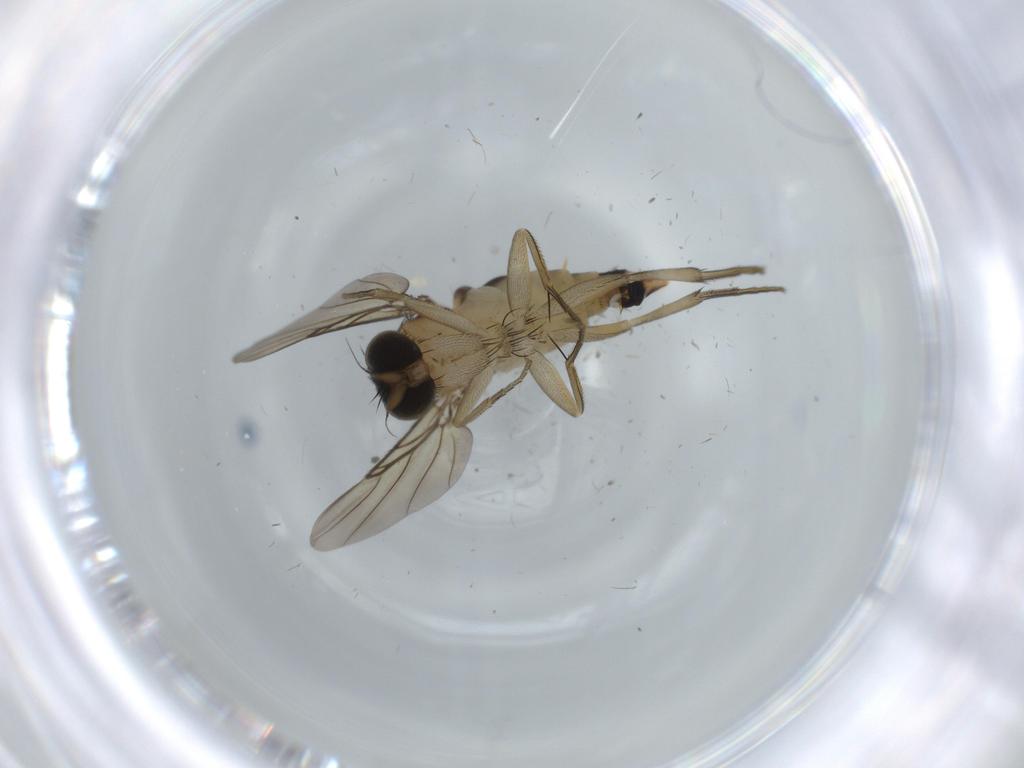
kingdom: Animalia
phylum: Arthropoda
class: Insecta
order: Diptera
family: Phoridae
